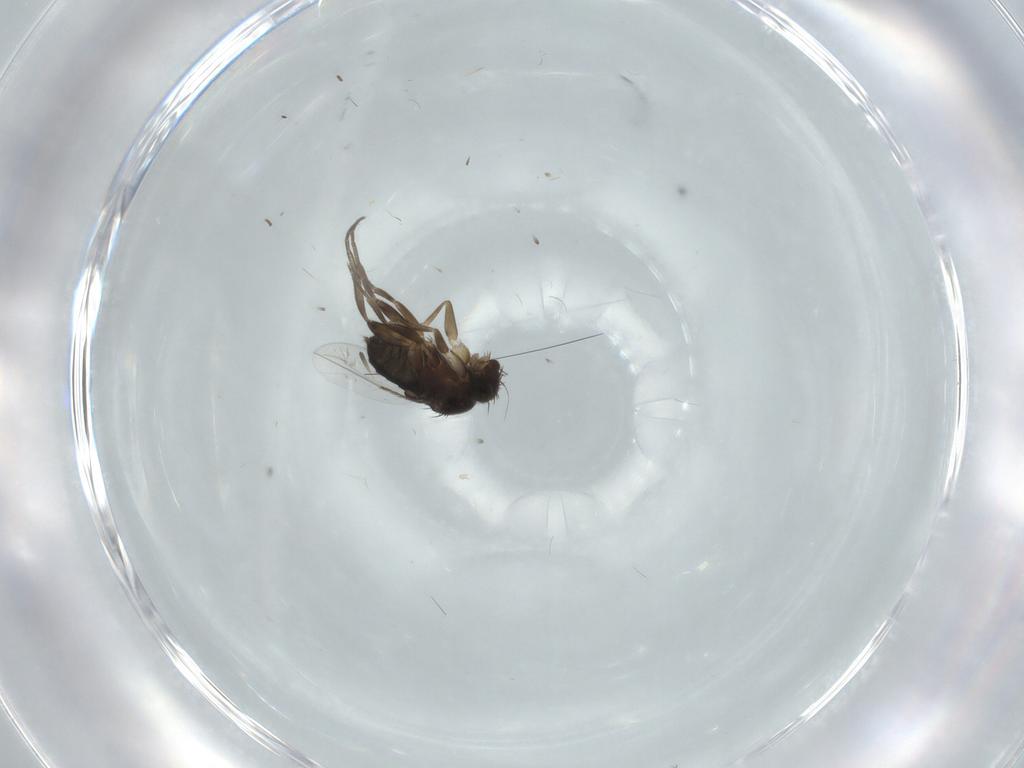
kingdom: Animalia
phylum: Arthropoda
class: Insecta
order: Diptera
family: Phoridae
